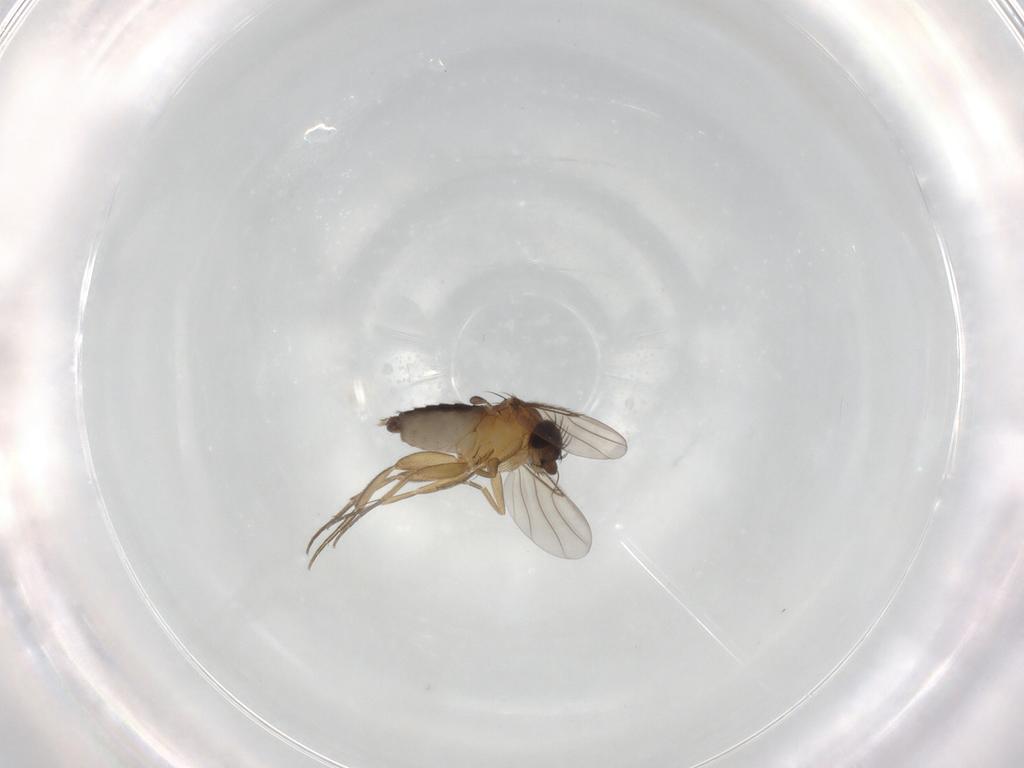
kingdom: Animalia
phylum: Arthropoda
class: Insecta
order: Diptera
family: Phoridae
